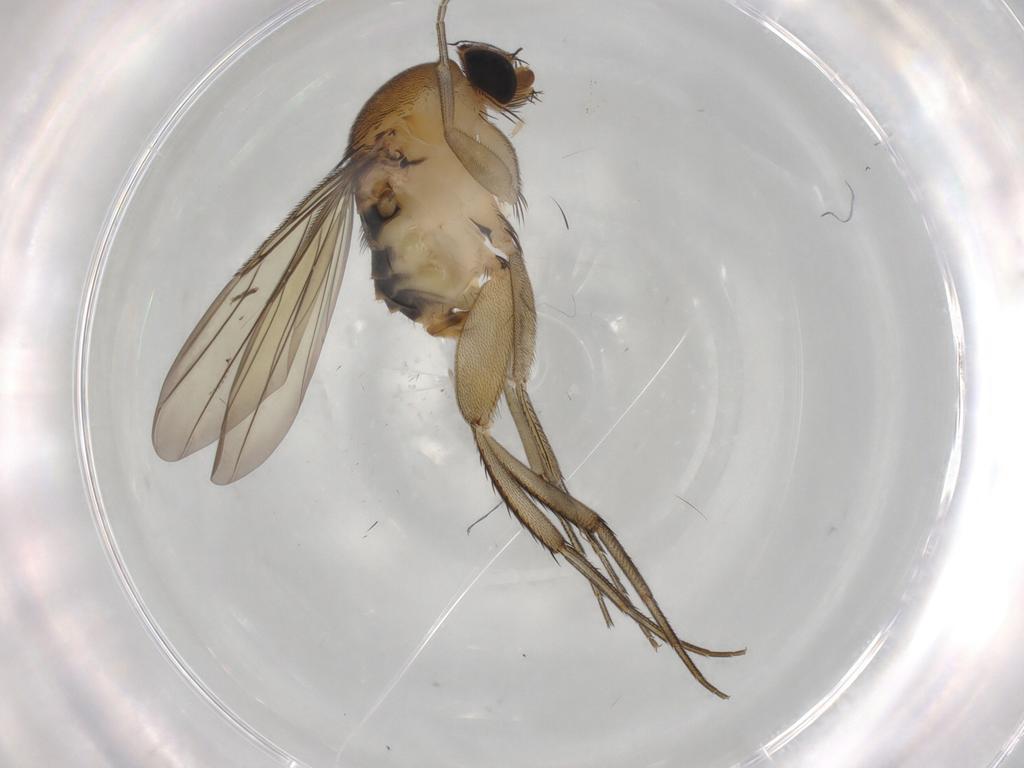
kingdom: Animalia
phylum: Arthropoda
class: Insecta
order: Diptera
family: Phoridae
